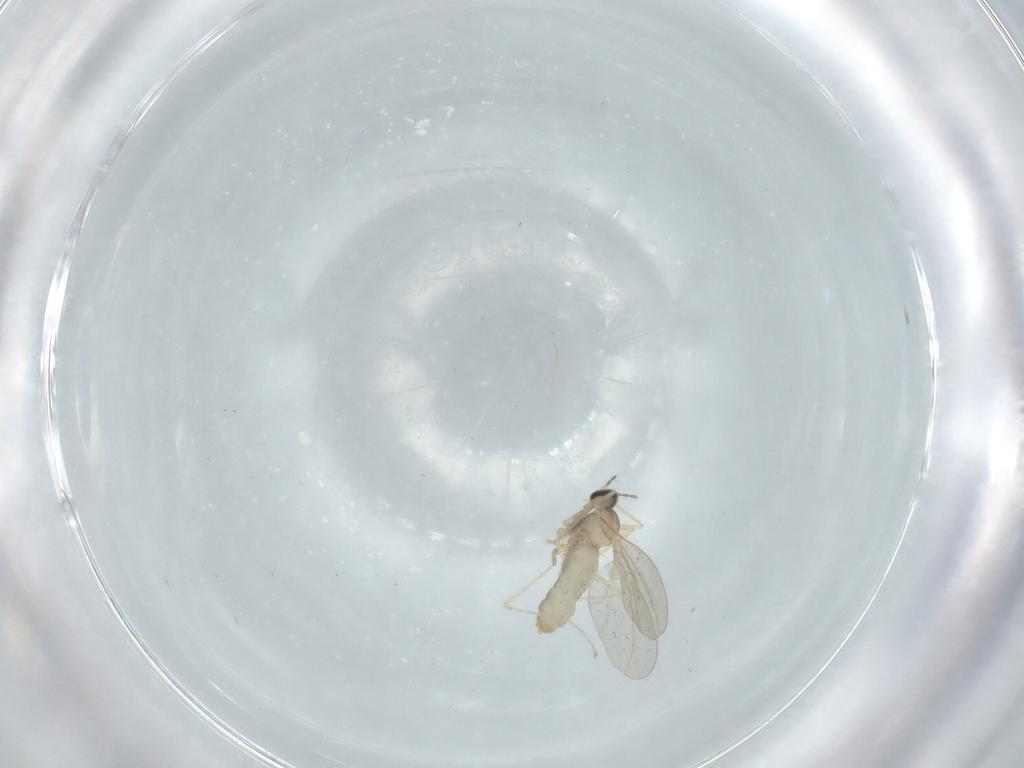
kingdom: Animalia
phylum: Arthropoda
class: Insecta
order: Diptera
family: Cecidomyiidae
